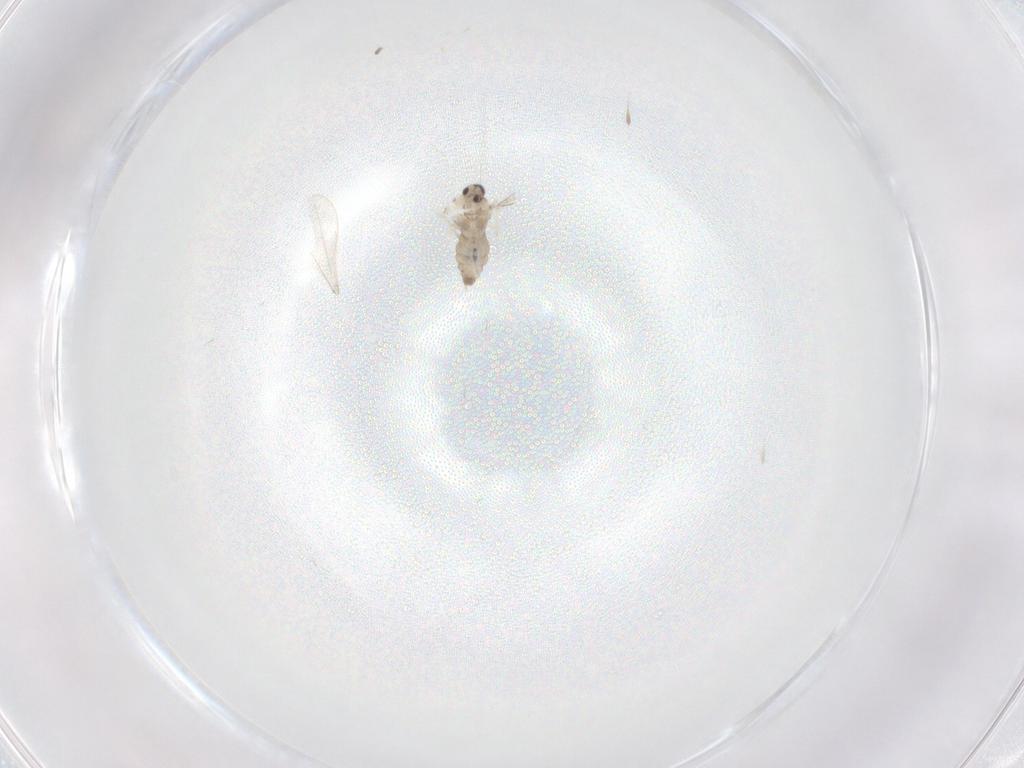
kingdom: Animalia
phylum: Arthropoda
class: Insecta
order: Diptera
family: Cecidomyiidae
